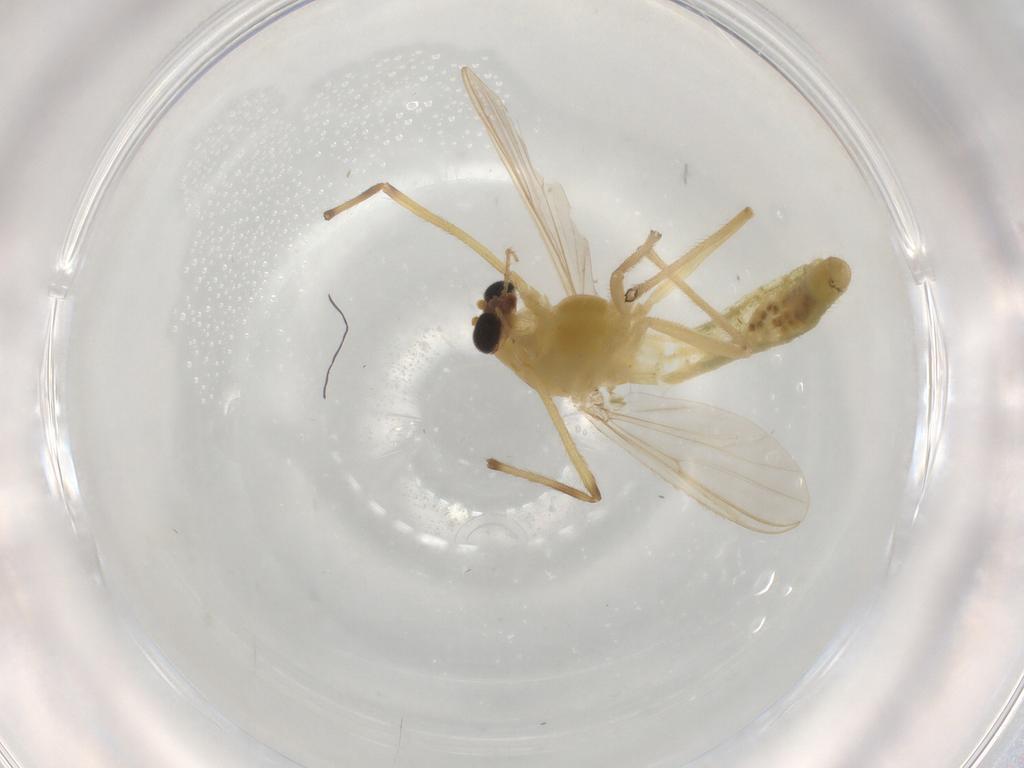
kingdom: Animalia
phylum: Arthropoda
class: Insecta
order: Diptera
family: Chironomidae
